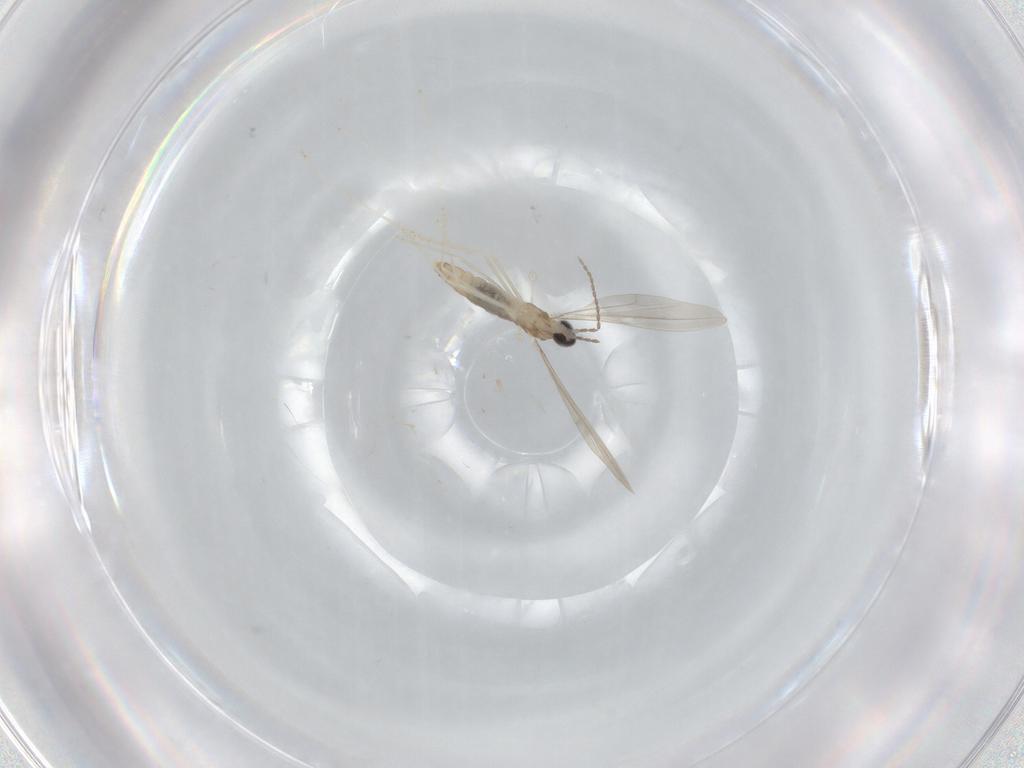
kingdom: Animalia
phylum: Arthropoda
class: Insecta
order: Diptera
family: Cecidomyiidae
